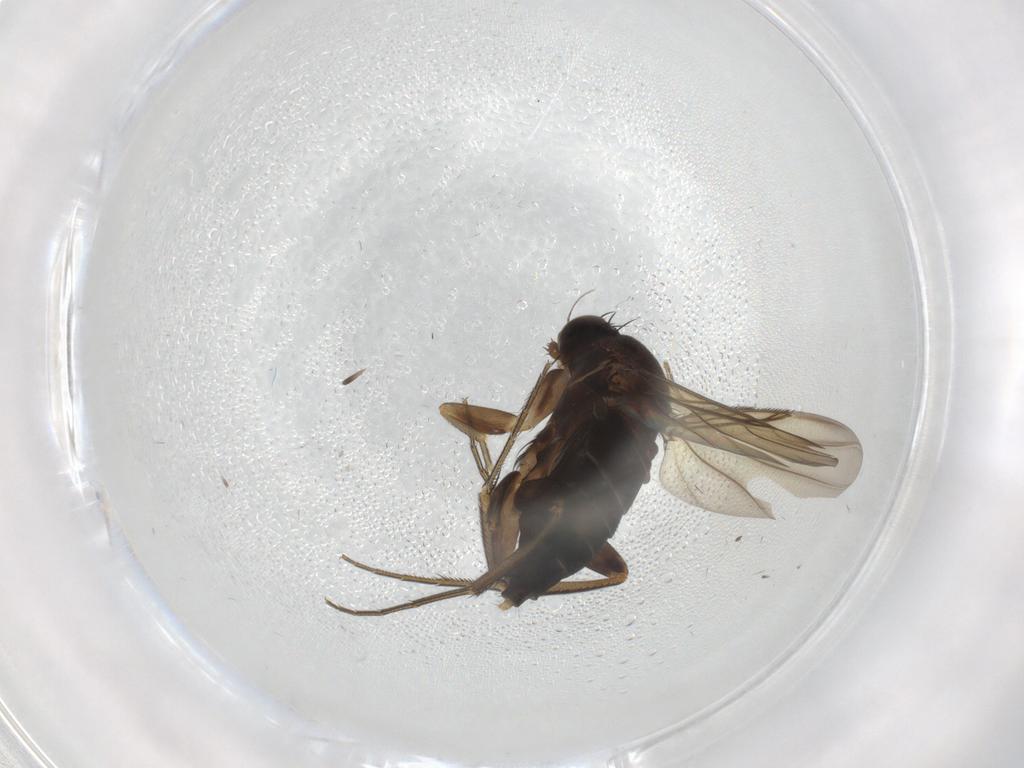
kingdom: Animalia
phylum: Arthropoda
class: Insecta
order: Diptera
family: Phoridae
